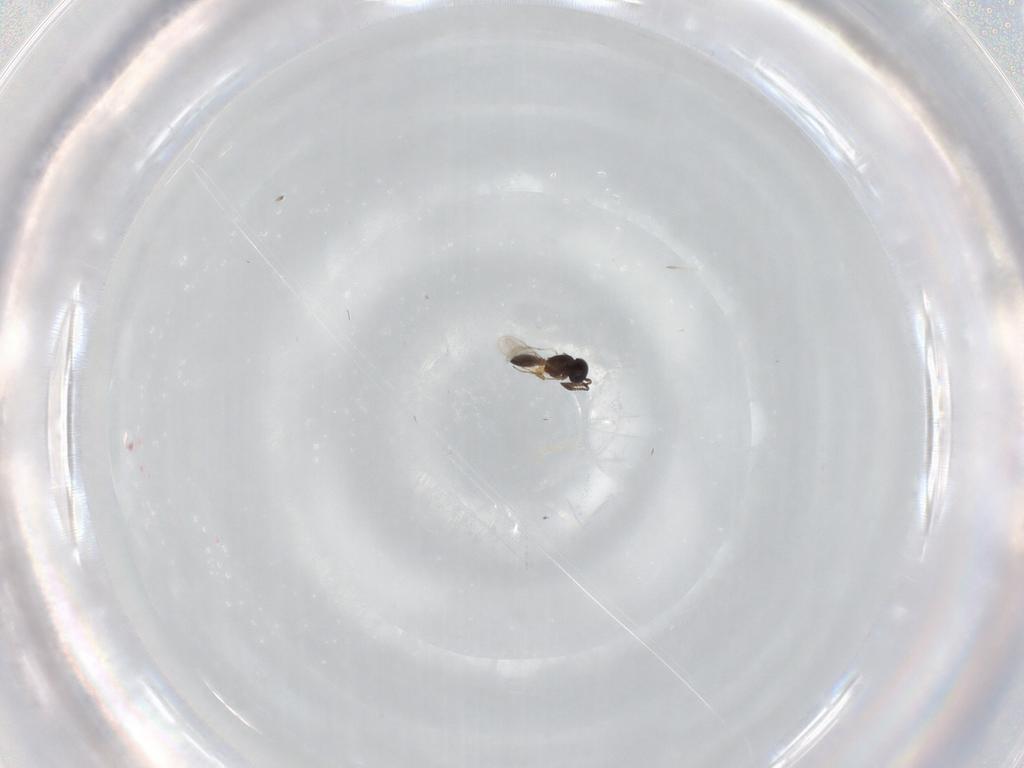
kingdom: Animalia
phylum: Arthropoda
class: Insecta
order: Hymenoptera
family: Scelionidae
